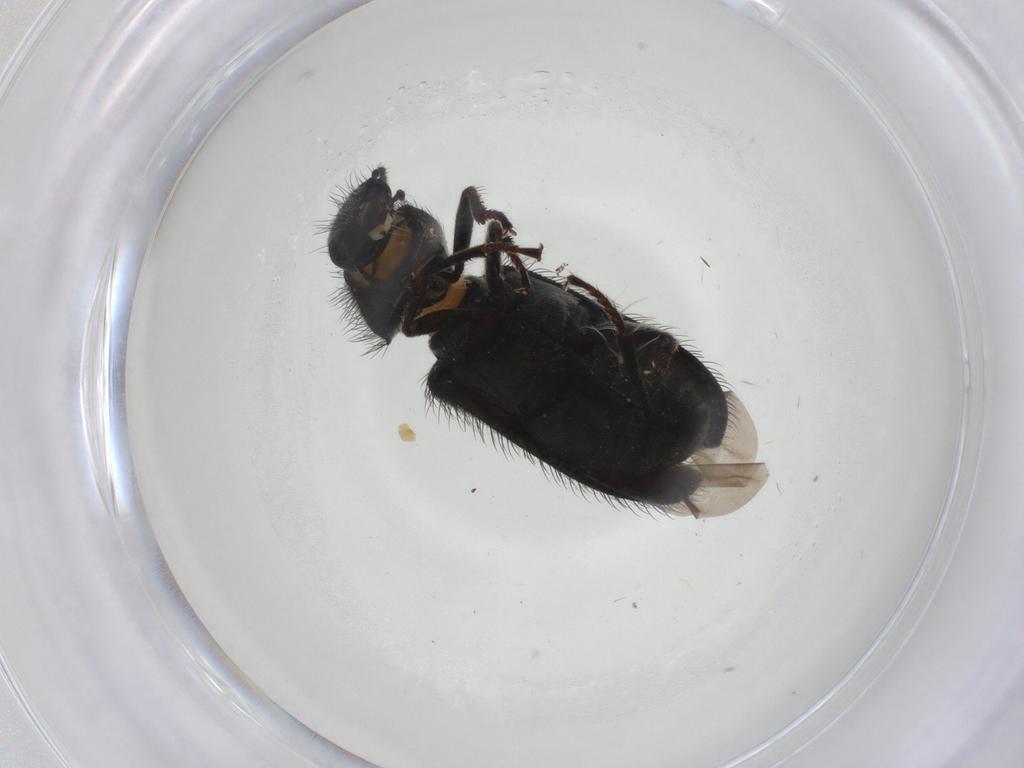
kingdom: Animalia
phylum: Arthropoda
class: Insecta
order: Coleoptera
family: Melyridae
